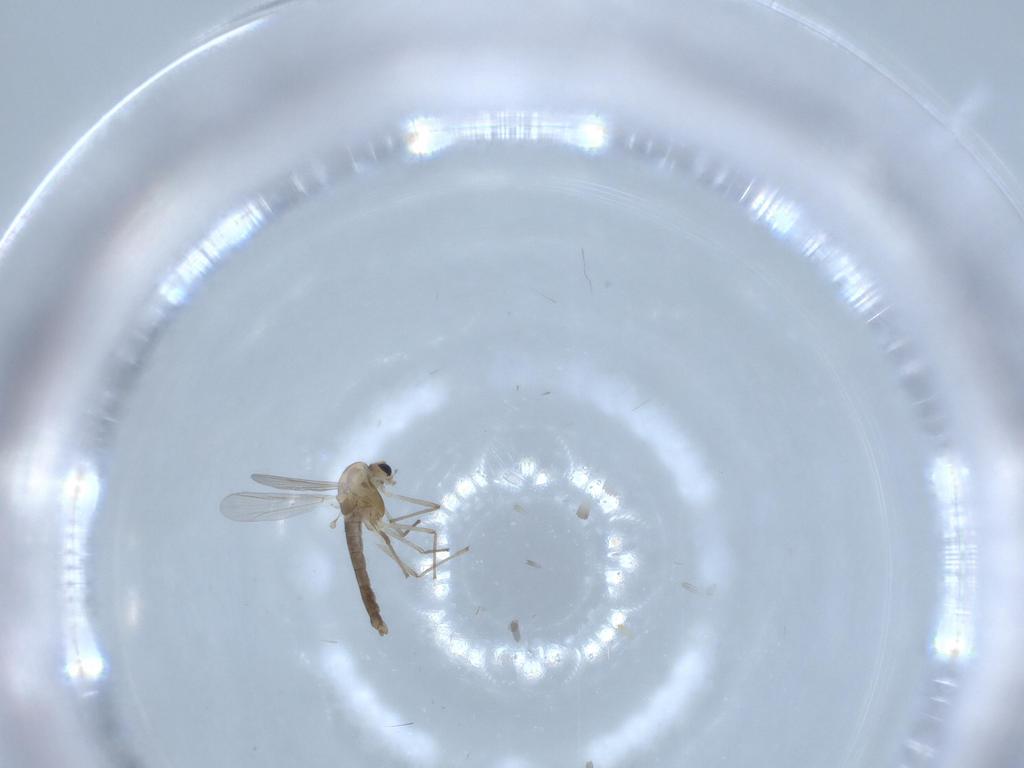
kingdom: Animalia
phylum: Arthropoda
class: Insecta
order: Diptera
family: Chironomidae
